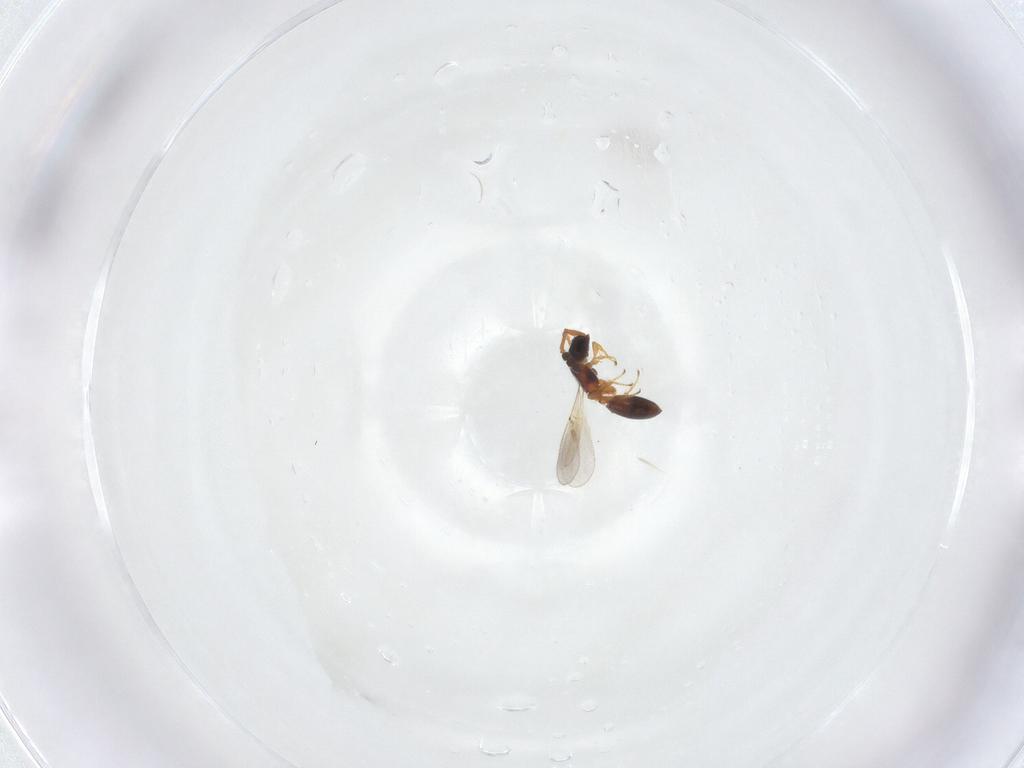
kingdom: Animalia
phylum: Arthropoda
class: Insecta
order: Hymenoptera
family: Diapriidae
